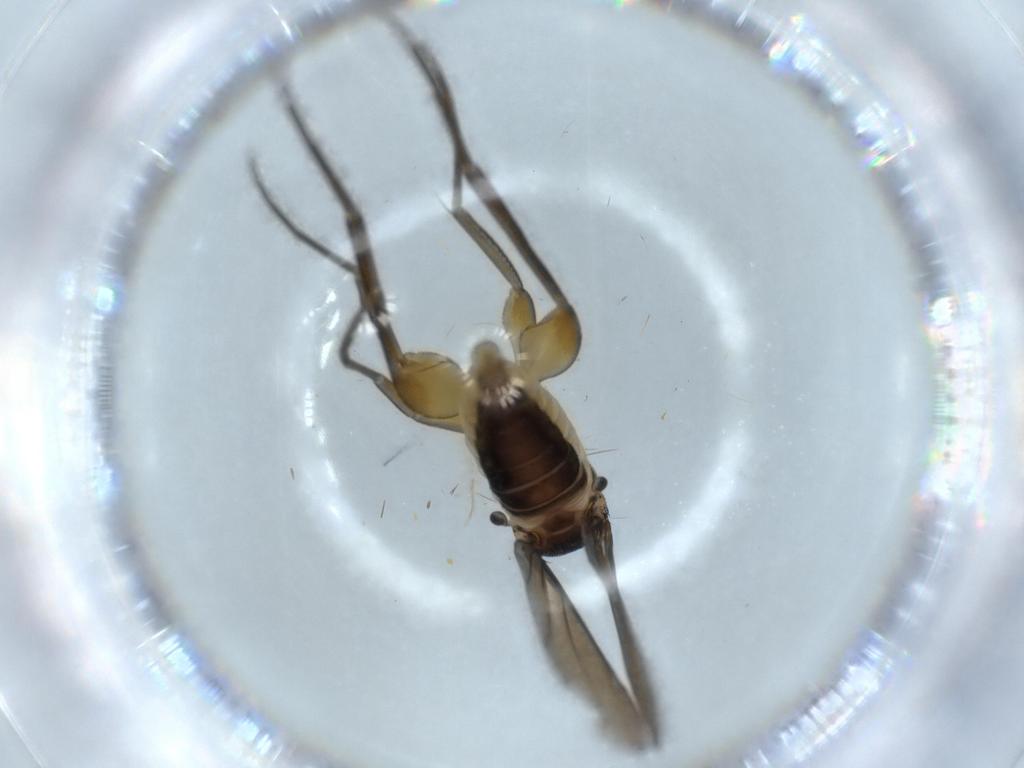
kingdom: Animalia
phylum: Arthropoda
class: Insecta
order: Diptera
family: Phoridae
